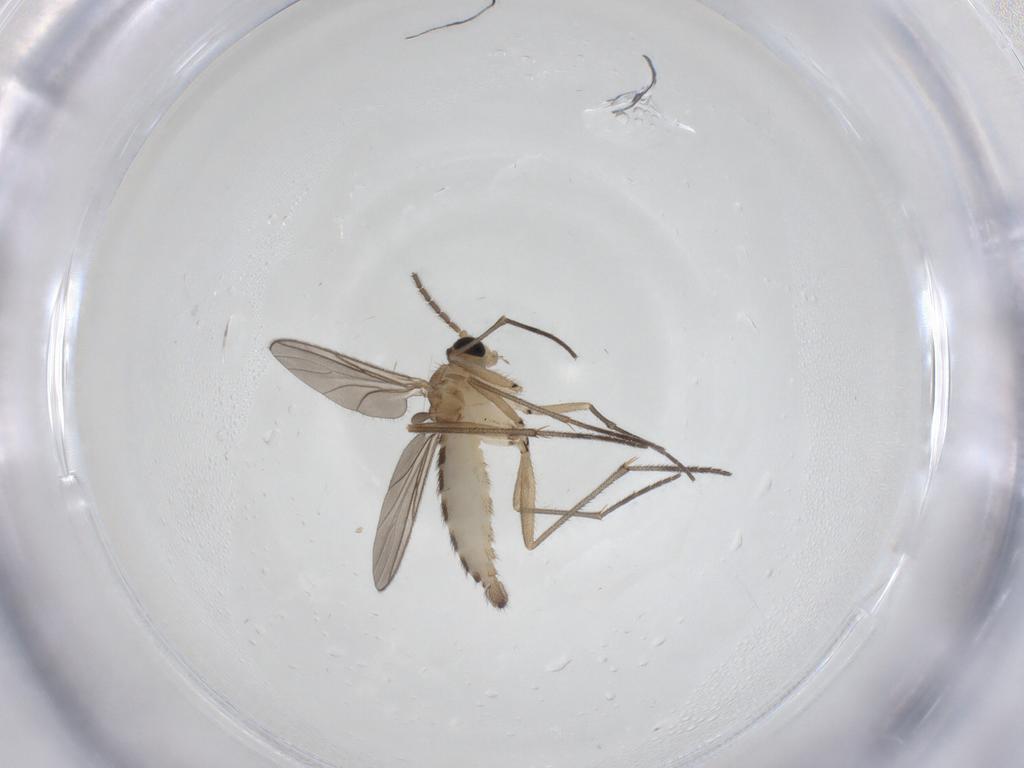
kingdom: Animalia
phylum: Arthropoda
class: Insecta
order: Diptera
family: Sciaridae
